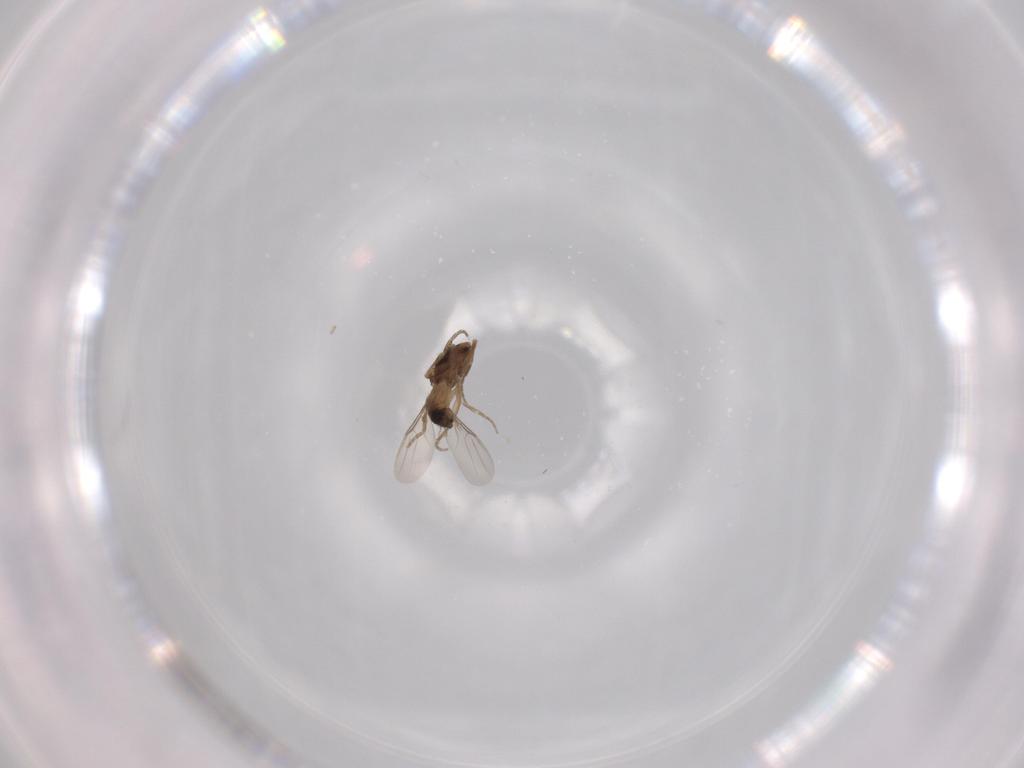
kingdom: Animalia
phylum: Arthropoda
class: Insecta
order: Diptera
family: Phoridae
